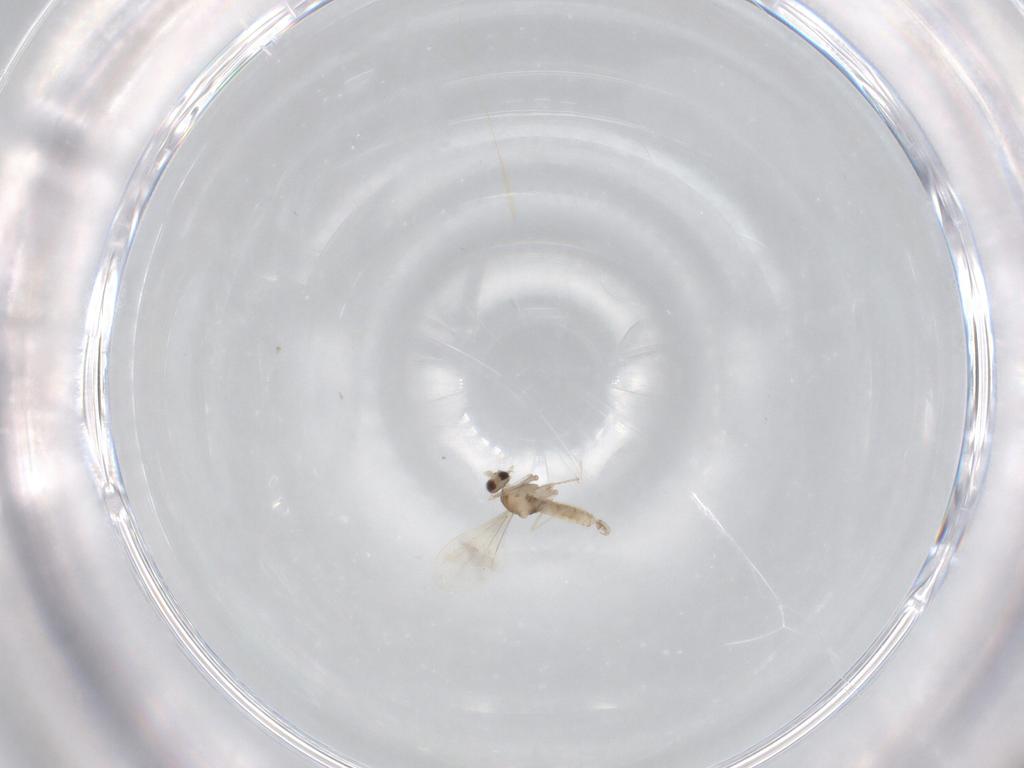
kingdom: Animalia
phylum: Arthropoda
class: Insecta
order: Diptera
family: Cecidomyiidae
